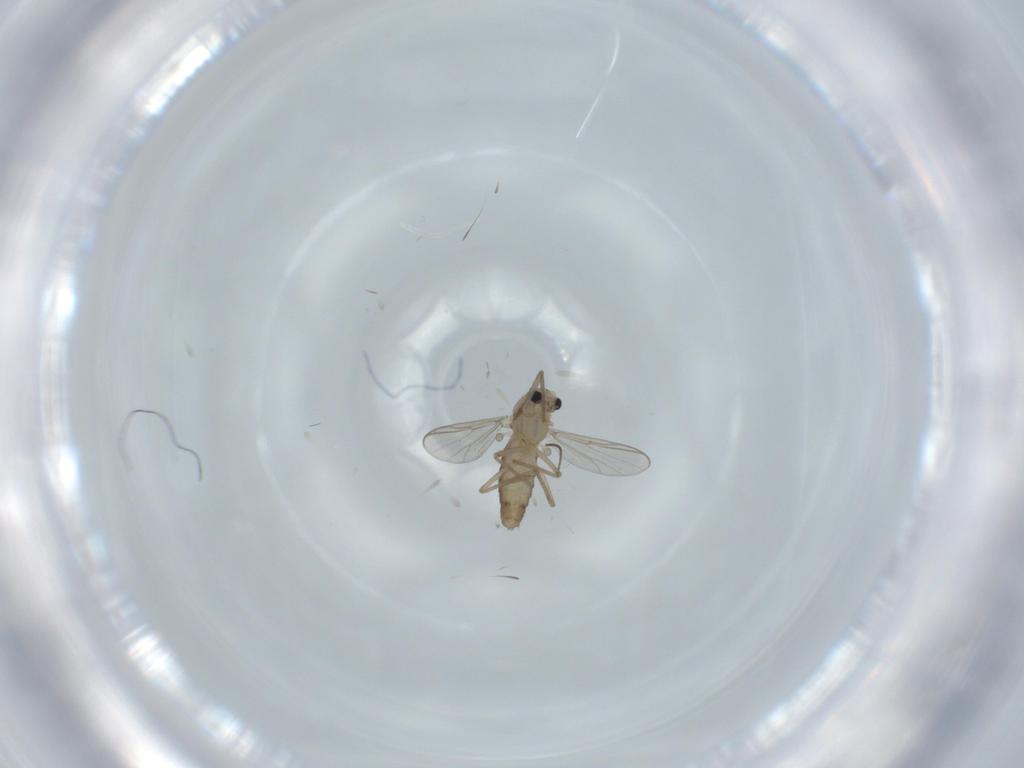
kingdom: Animalia
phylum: Arthropoda
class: Insecta
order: Diptera
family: Chironomidae
